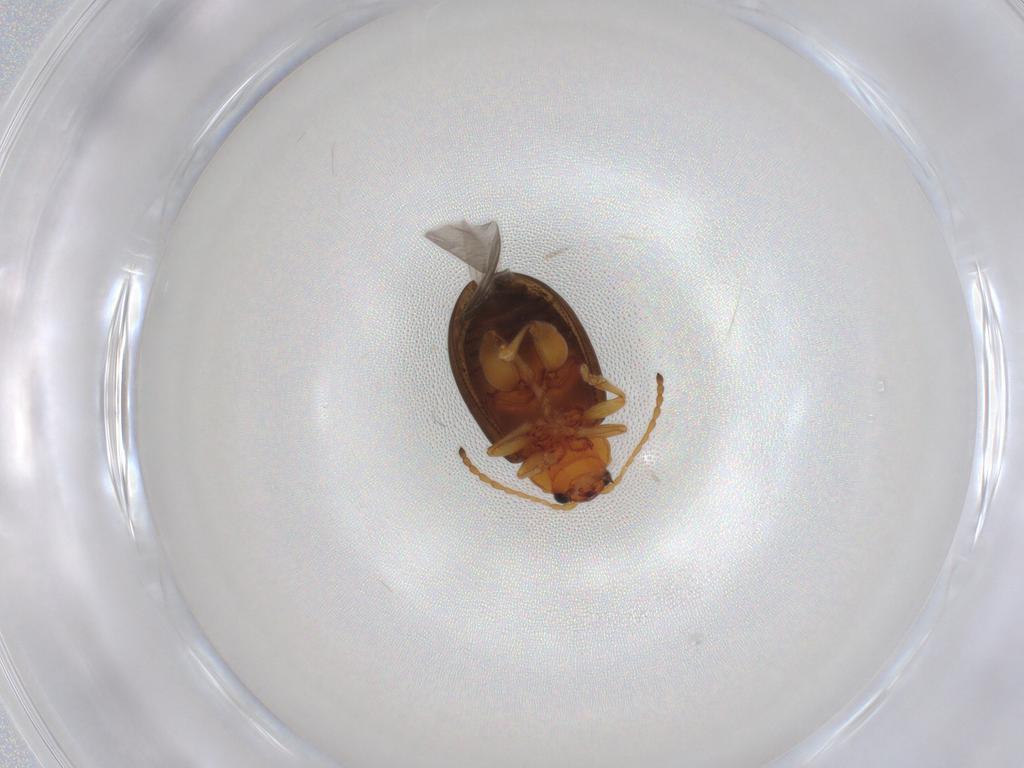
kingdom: Animalia
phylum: Arthropoda
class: Insecta
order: Coleoptera
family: Chrysomelidae
